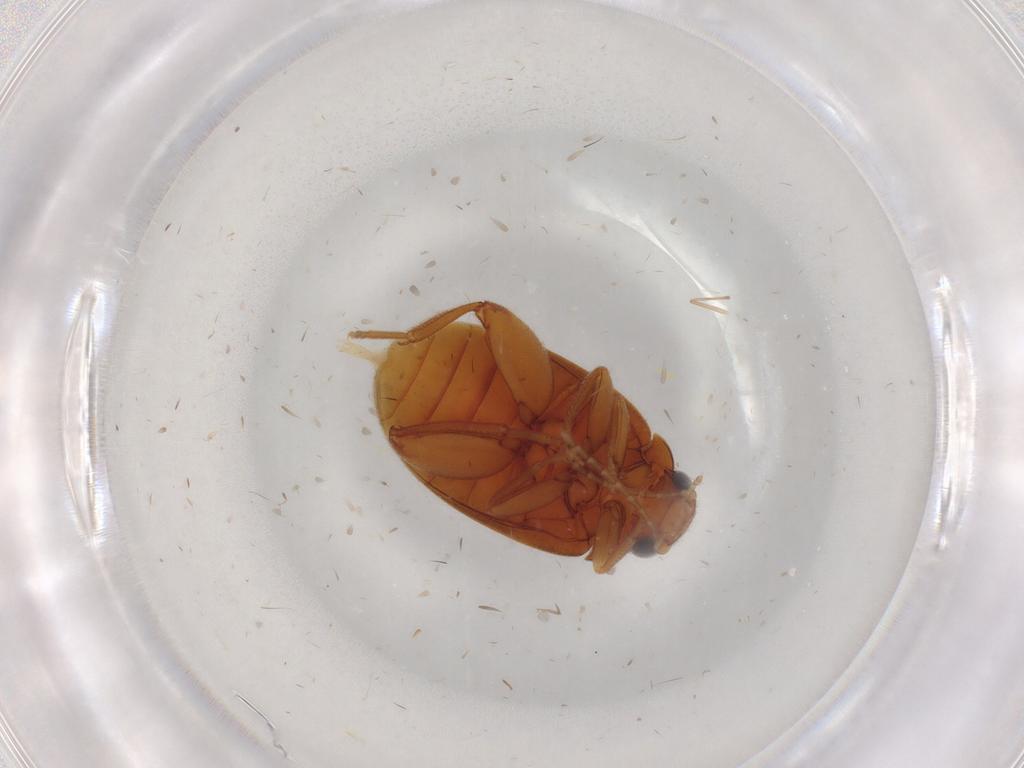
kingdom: Animalia
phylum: Arthropoda
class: Insecta
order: Coleoptera
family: Scirtidae
